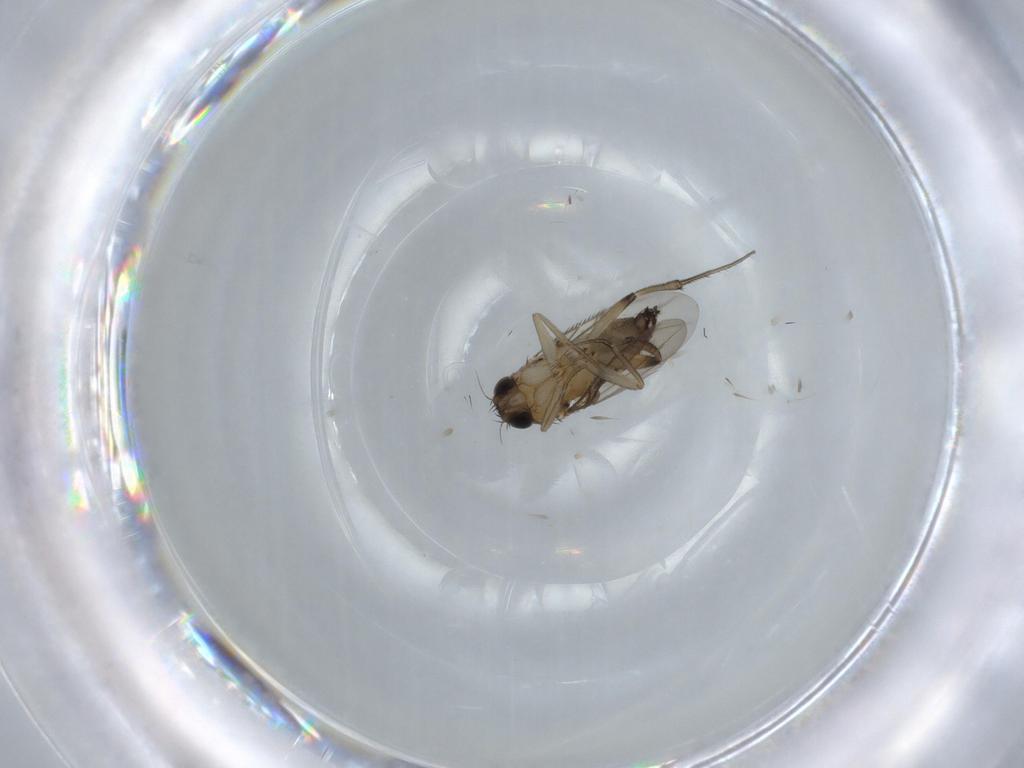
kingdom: Animalia
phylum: Arthropoda
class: Insecta
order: Diptera
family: Phoridae
